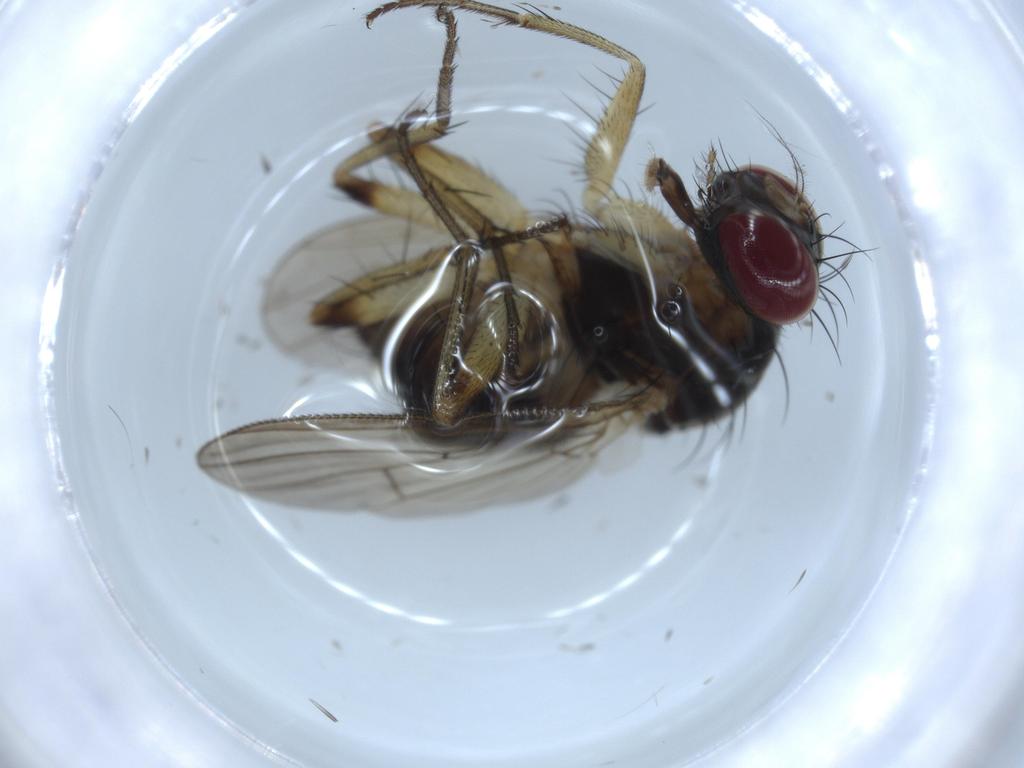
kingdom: Animalia
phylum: Arthropoda
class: Insecta
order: Diptera
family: Muscidae
